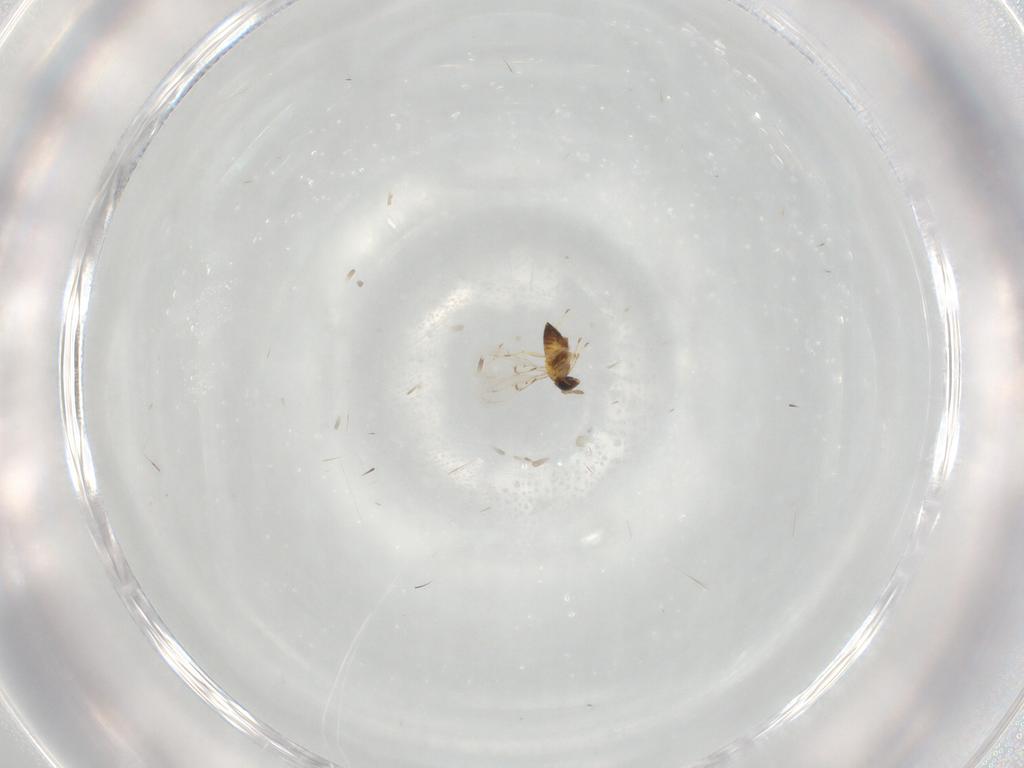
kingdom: Animalia
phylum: Arthropoda
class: Insecta
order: Hymenoptera
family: Trichogrammatidae
